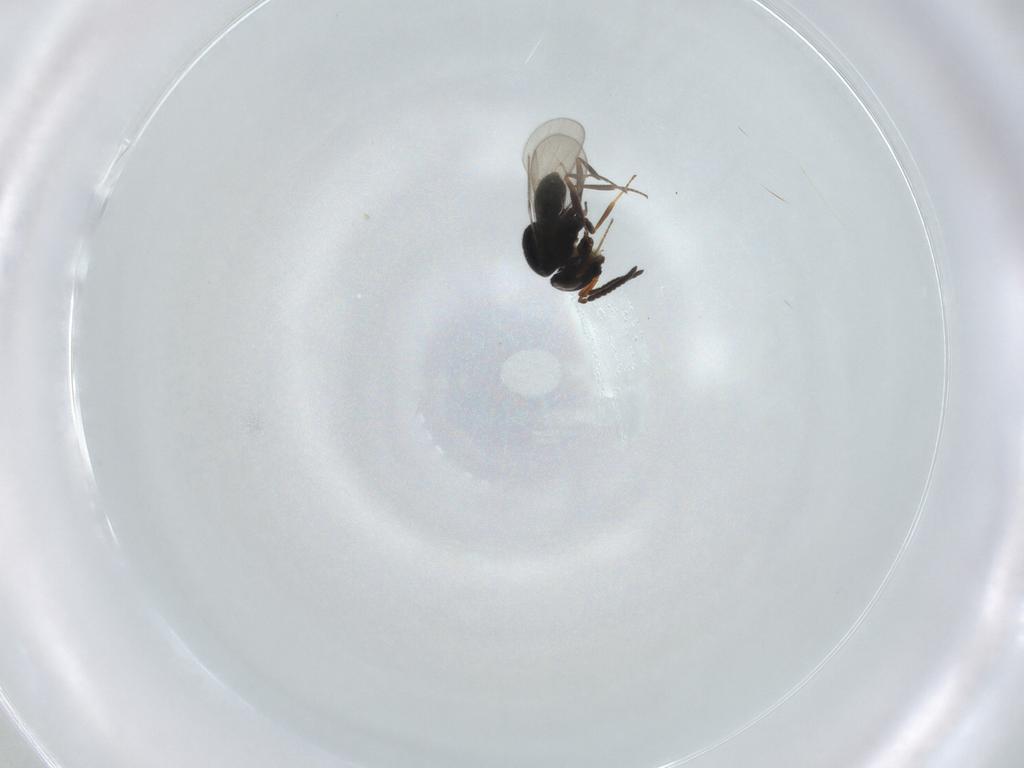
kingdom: Animalia
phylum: Arthropoda
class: Insecta
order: Hymenoptera
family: Scelionidae
